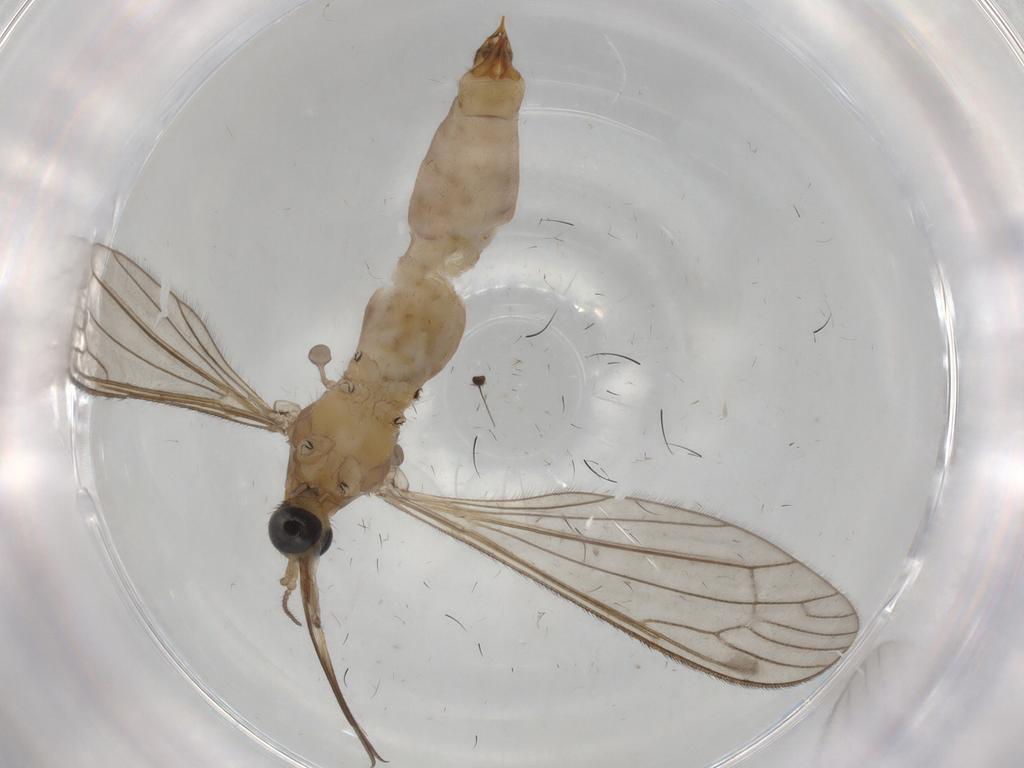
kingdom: Animalia
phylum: Arthropoda
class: Insecta
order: Diptera
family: Limoniidae
